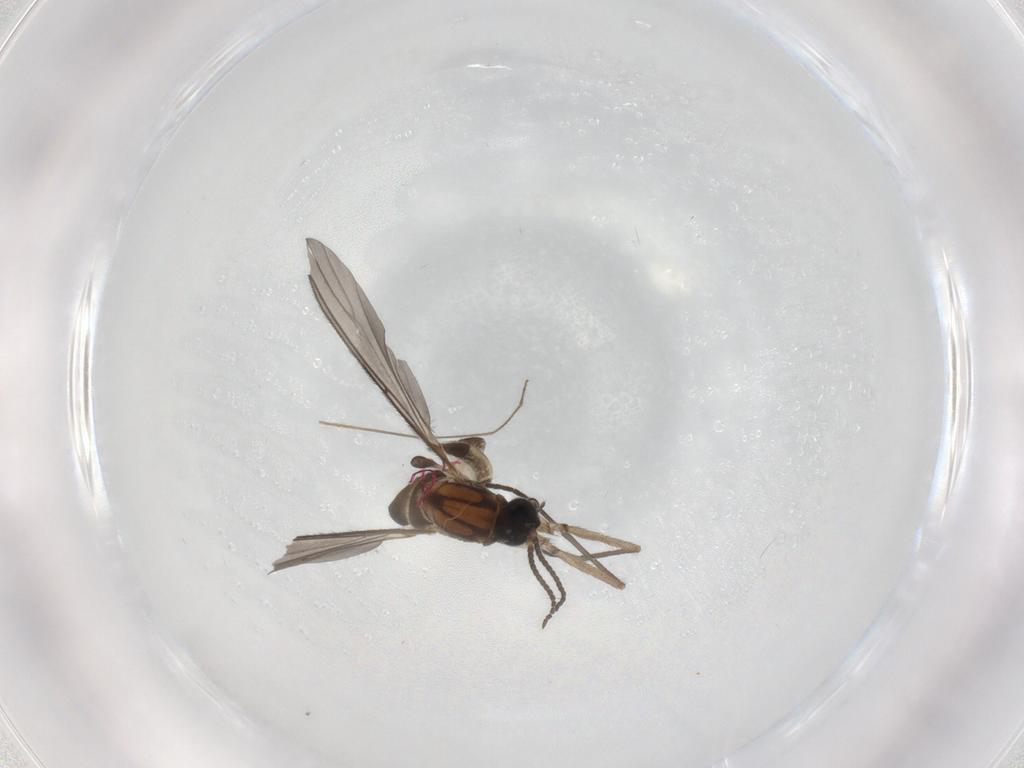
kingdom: Animalia
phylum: Arthropoda
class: Insecta
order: Diptera
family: Sciaridae
